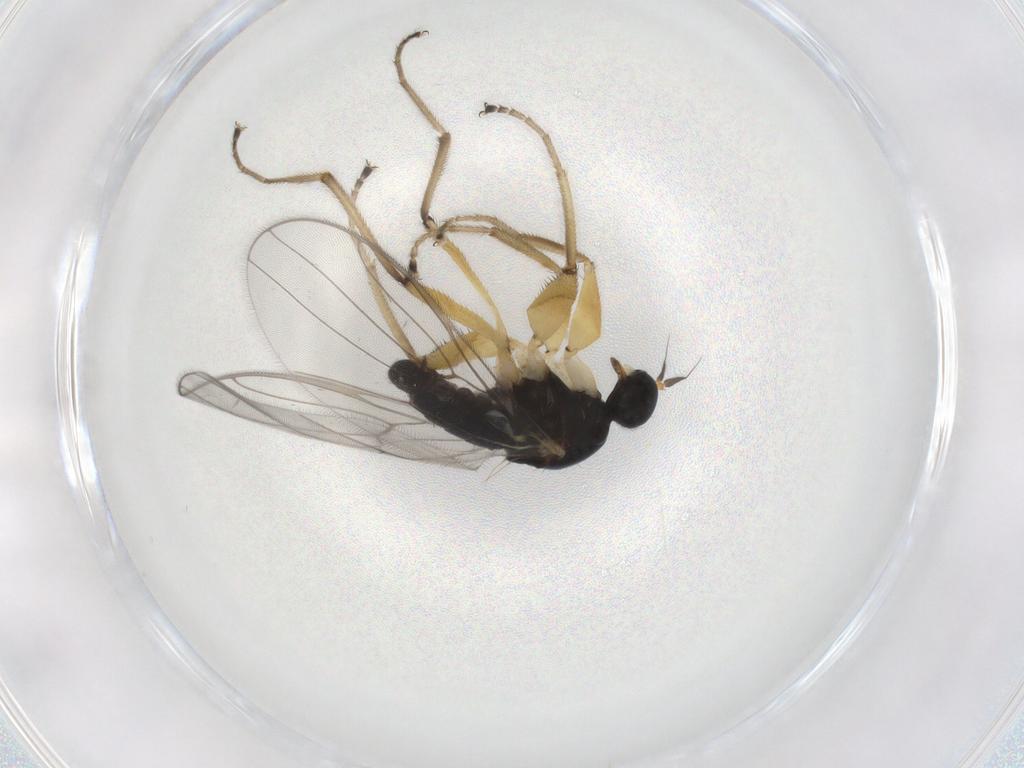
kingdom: Animalia
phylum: Arthropoda
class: Insecta
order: Diptera
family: Hybotidae
